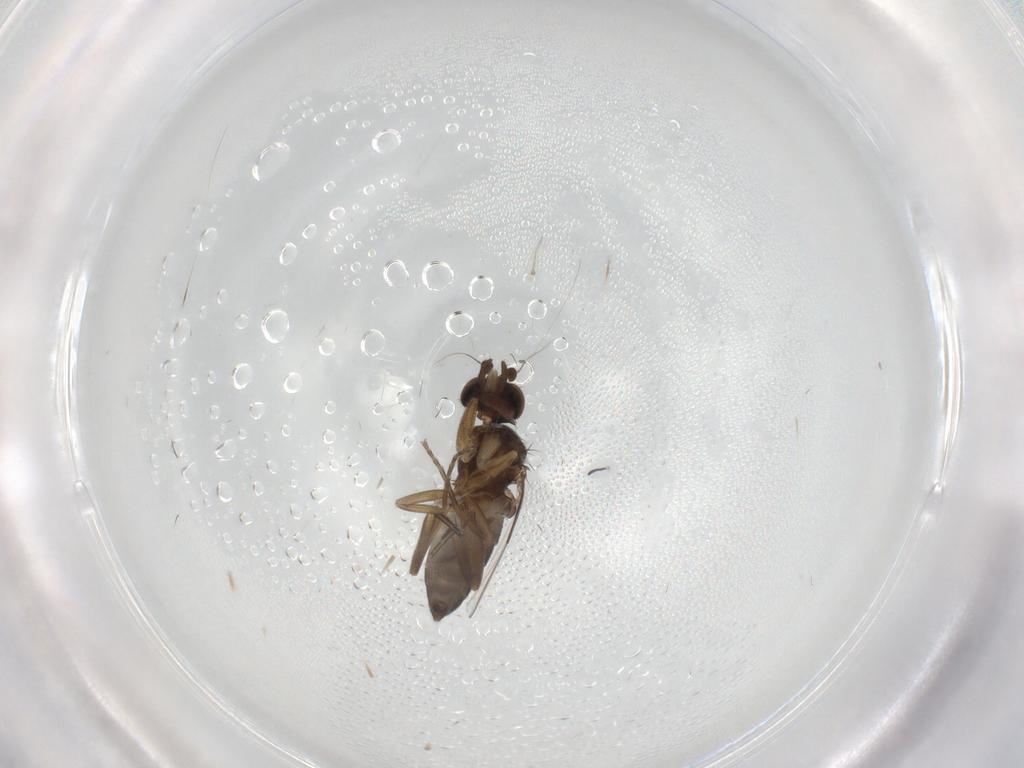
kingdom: Animalia
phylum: Arthropoda
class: Insecta
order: Diptera
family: Phoridae
